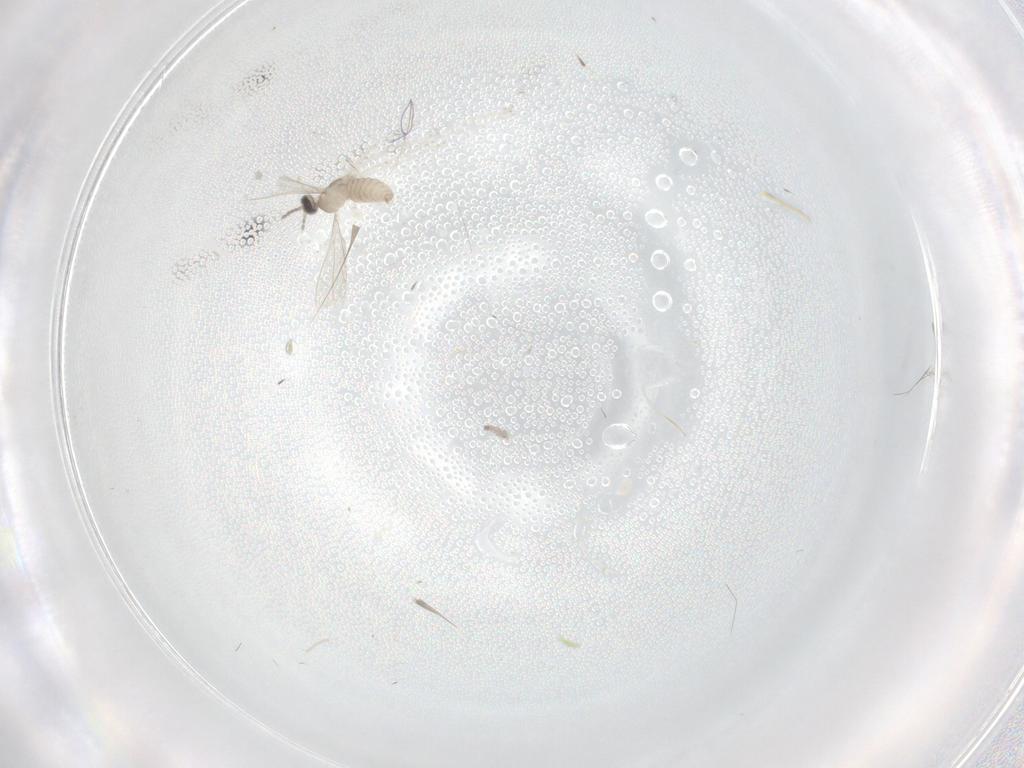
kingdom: Animalia
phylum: Arthropoda
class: Insecta
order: Diptera
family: Cecidomyiidae
